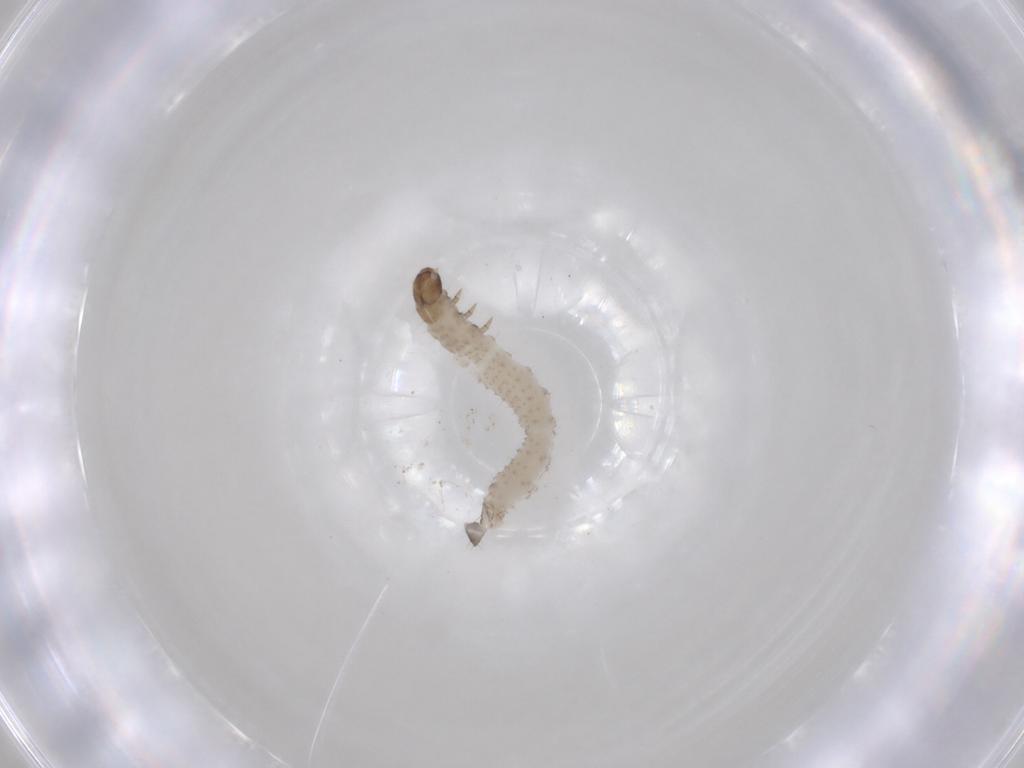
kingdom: Animalia
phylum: Arthropoda
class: Insecta
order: Coleoptera
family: Chrysomelidae
